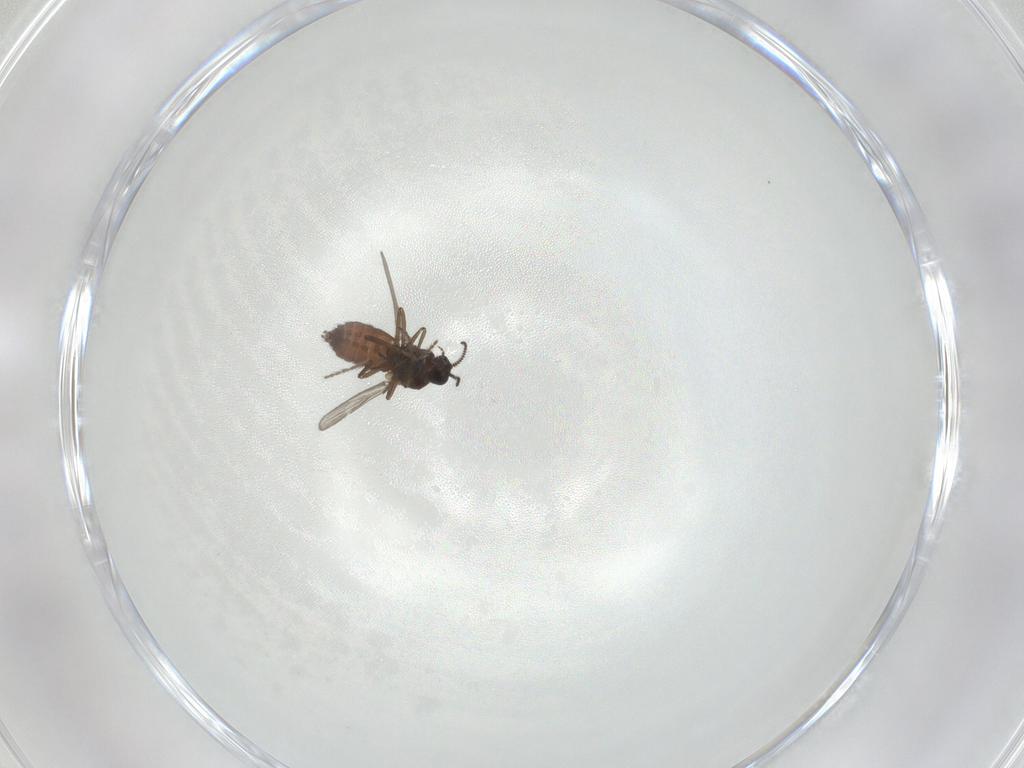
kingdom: Animalia
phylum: Arthropoda
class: Insecta
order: Diptera
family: Ceratopogonidae
